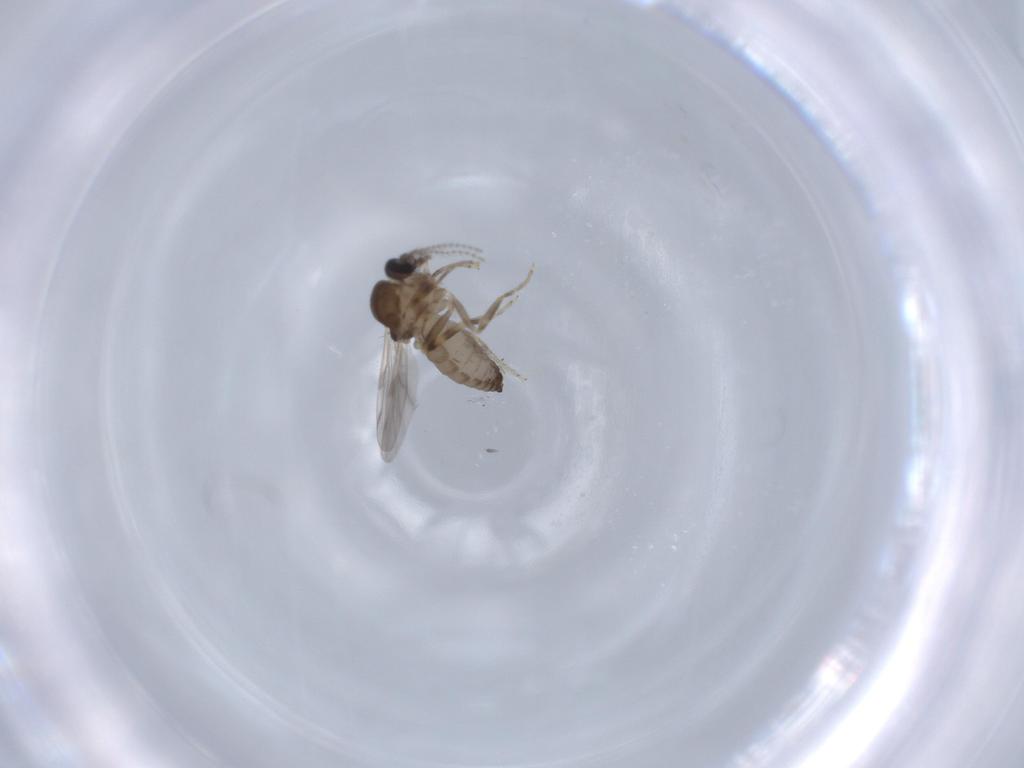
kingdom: Animalia
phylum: Arthropoda
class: Insecta
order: Diptera
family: Ceratopogonidae
